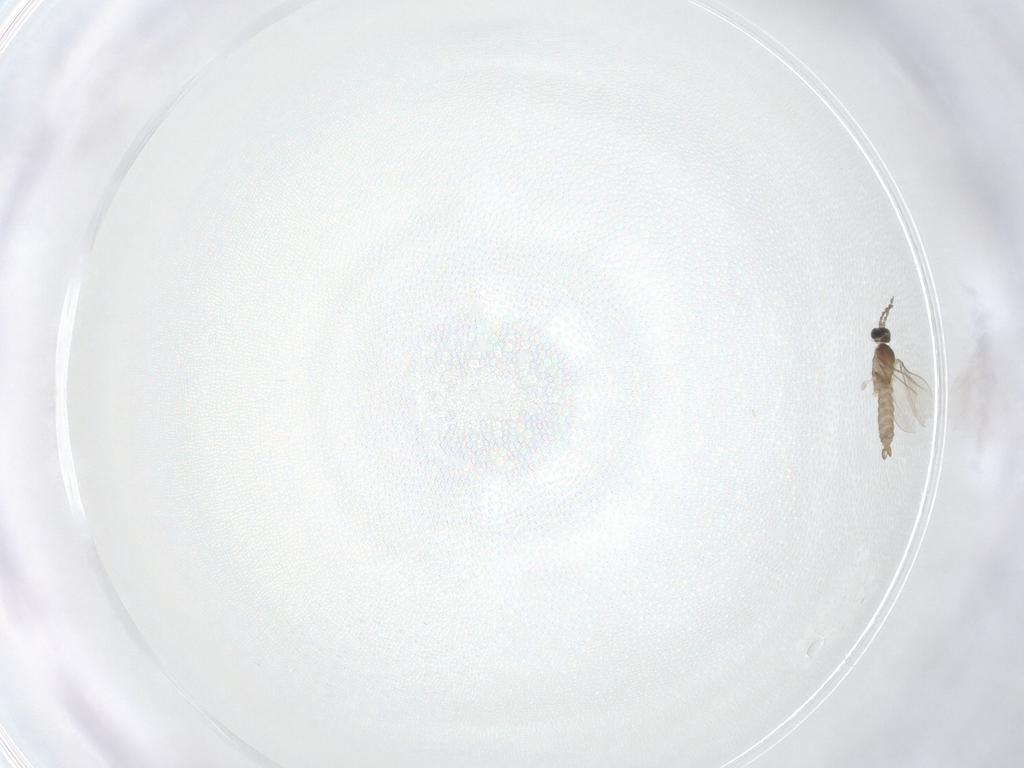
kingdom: Animalia
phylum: Arthropoda
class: Insecta
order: Diptera
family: Cecidomyiidae
